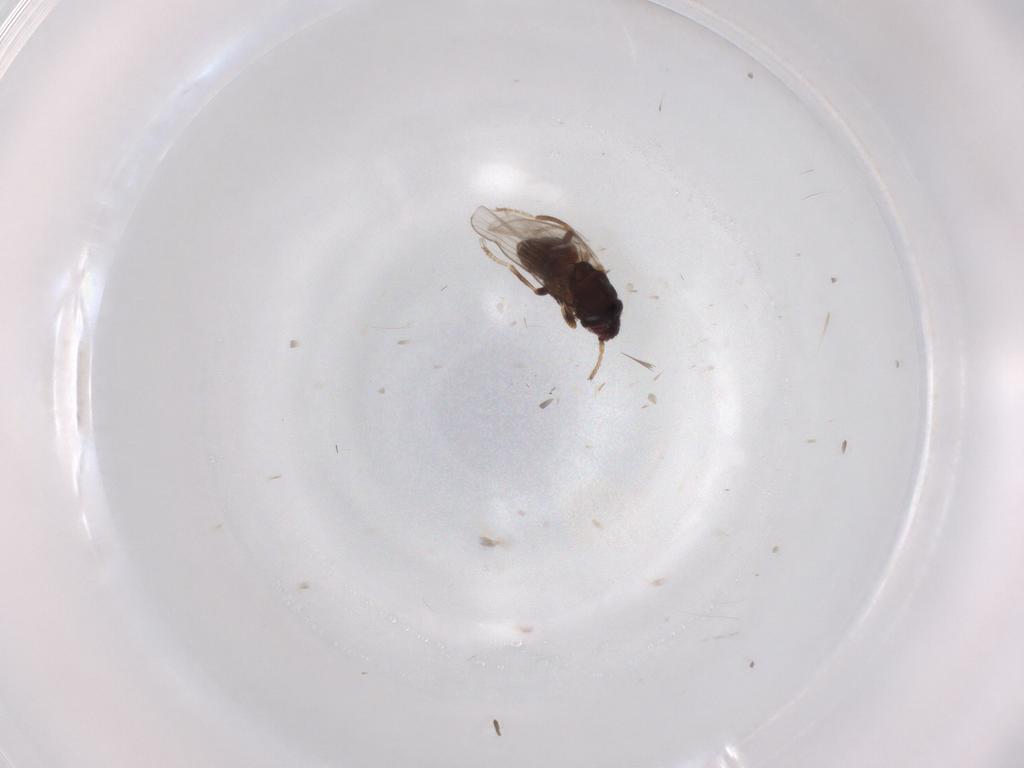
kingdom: Animalia
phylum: Arthropoda
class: Insecta
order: Diptera
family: Chloropidae
